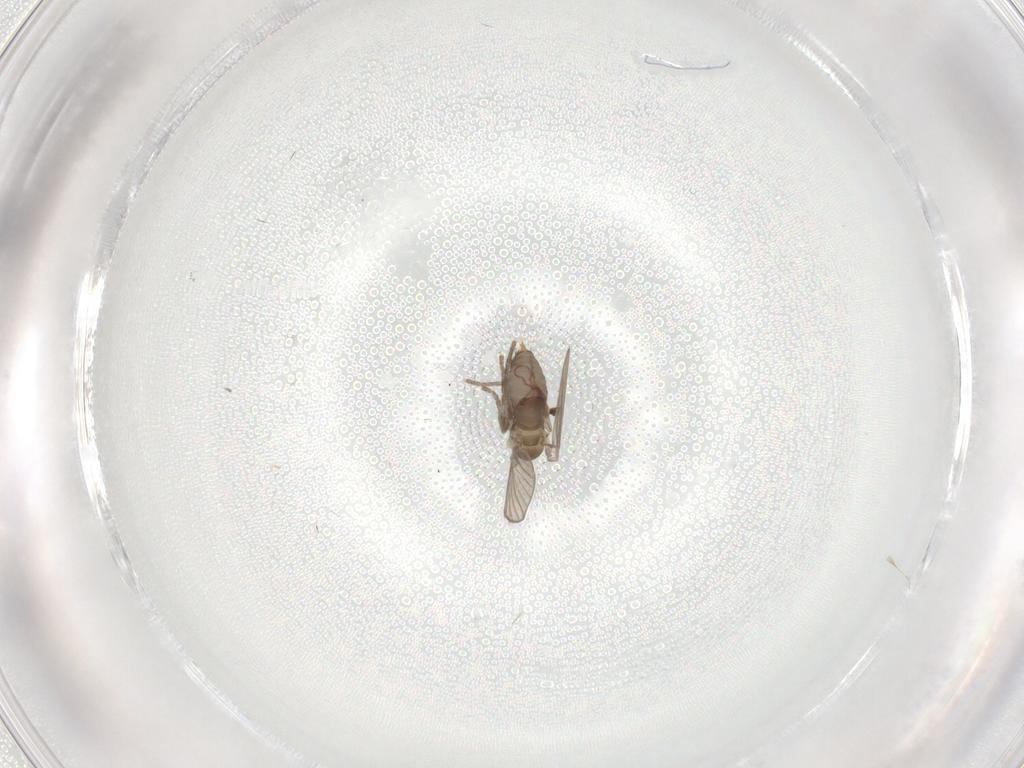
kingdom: Animalia
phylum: Arthropoda
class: Insecta
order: Diptera
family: Psychodidae
